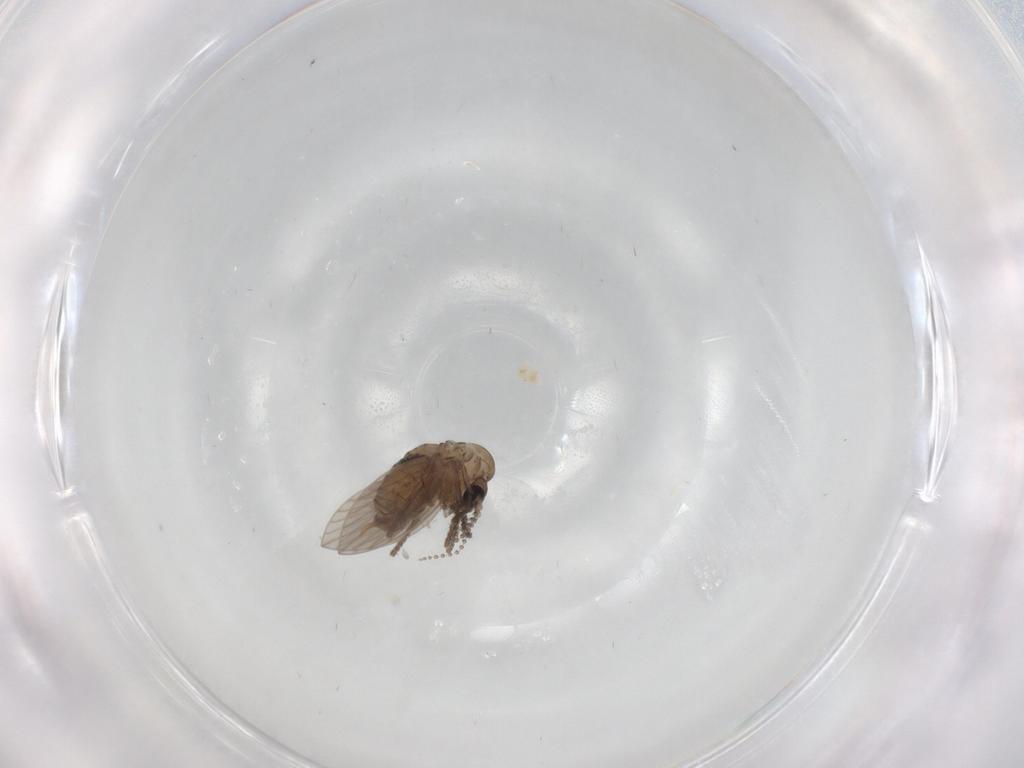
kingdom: Animalia
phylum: Arthropoda
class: Insecta
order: Diptera
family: Psychodidae
